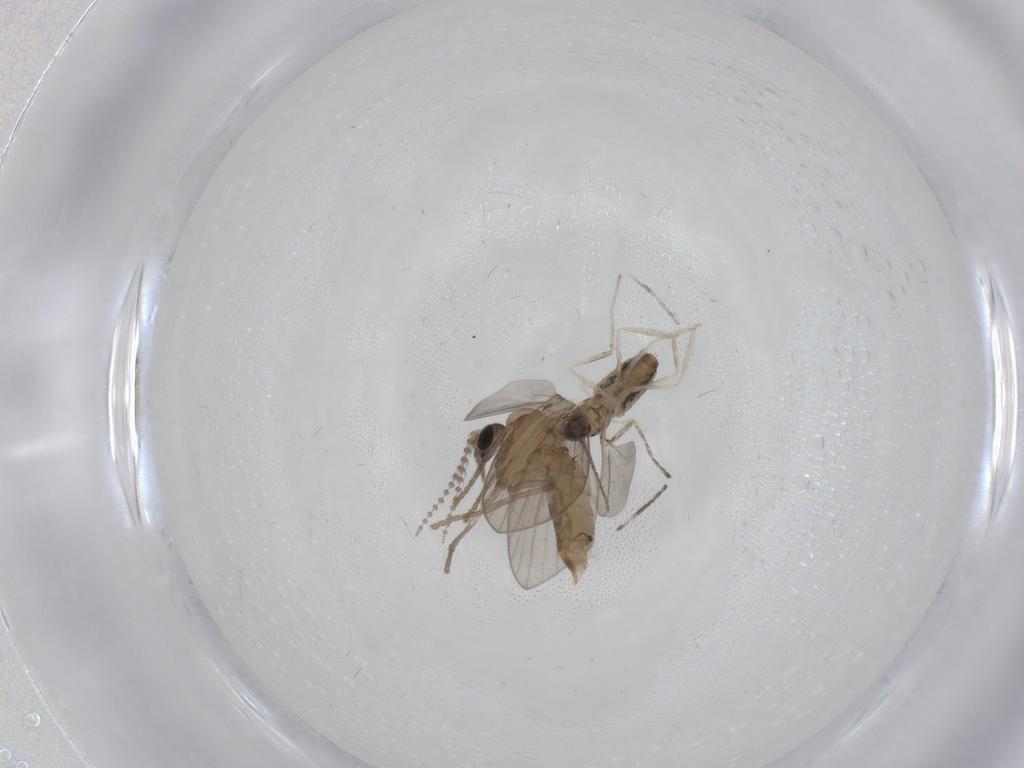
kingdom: Animalia
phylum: Arthropoda
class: Insecta
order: Diptera
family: Psychodidae
